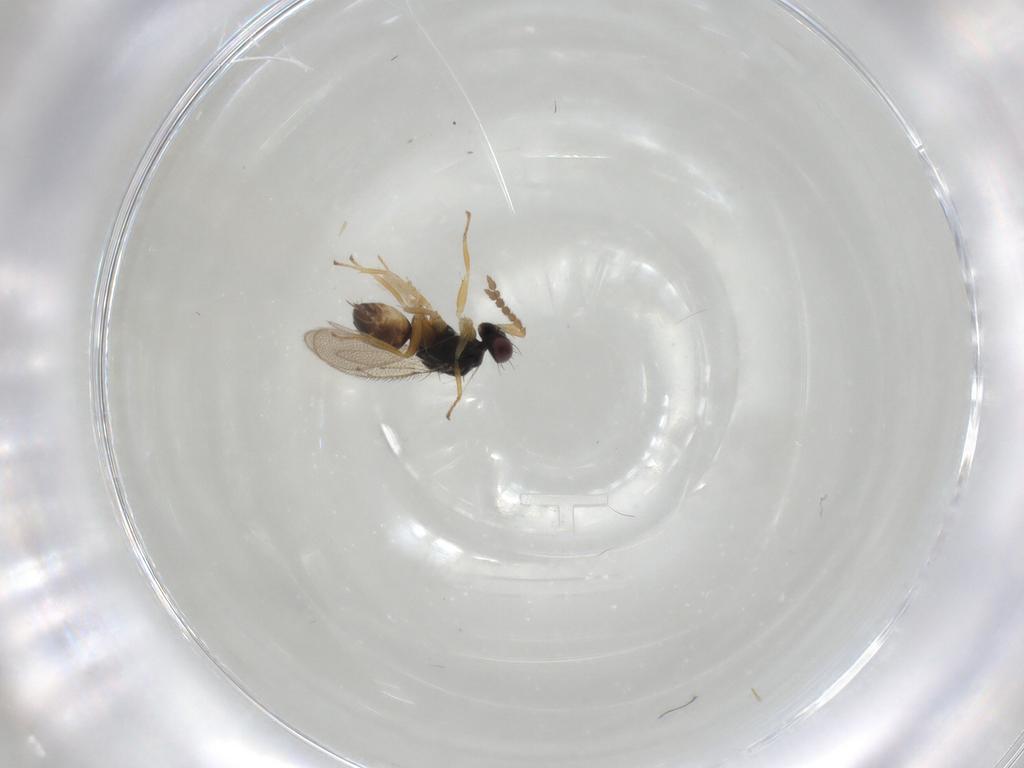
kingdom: Animalia
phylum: Arthropoda
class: Insecta
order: Hymenoptera
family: Eulophidae
